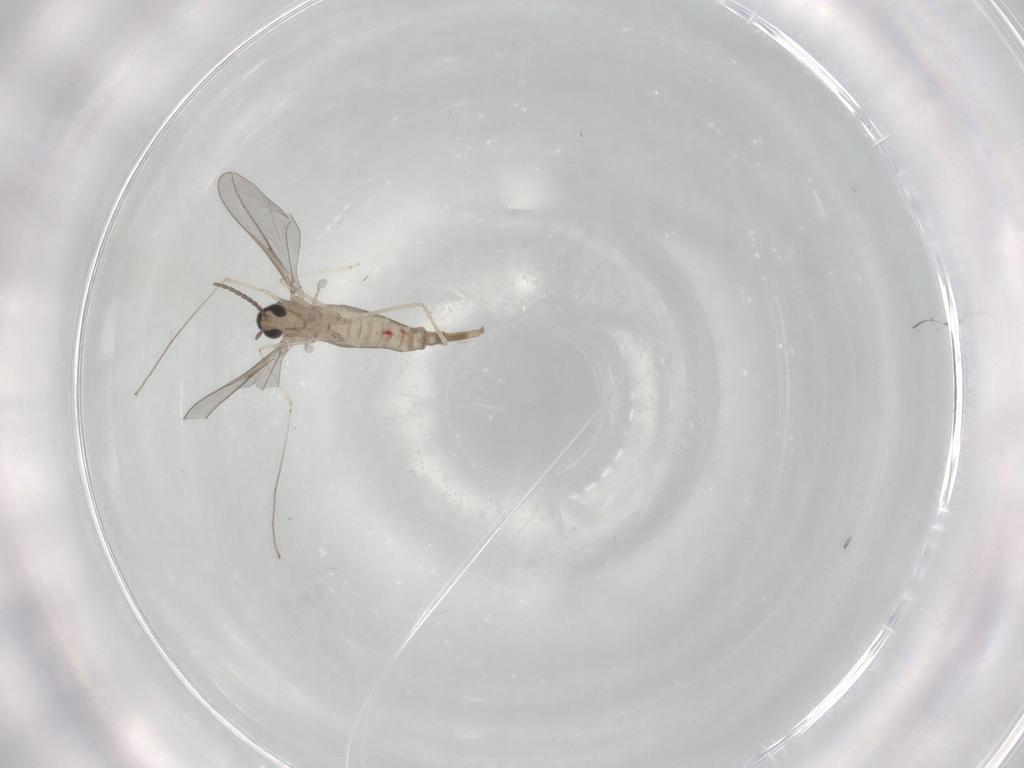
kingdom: Animalia
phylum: Arthropoda
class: Insecta
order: Diptera
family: Cecidomyiidae
